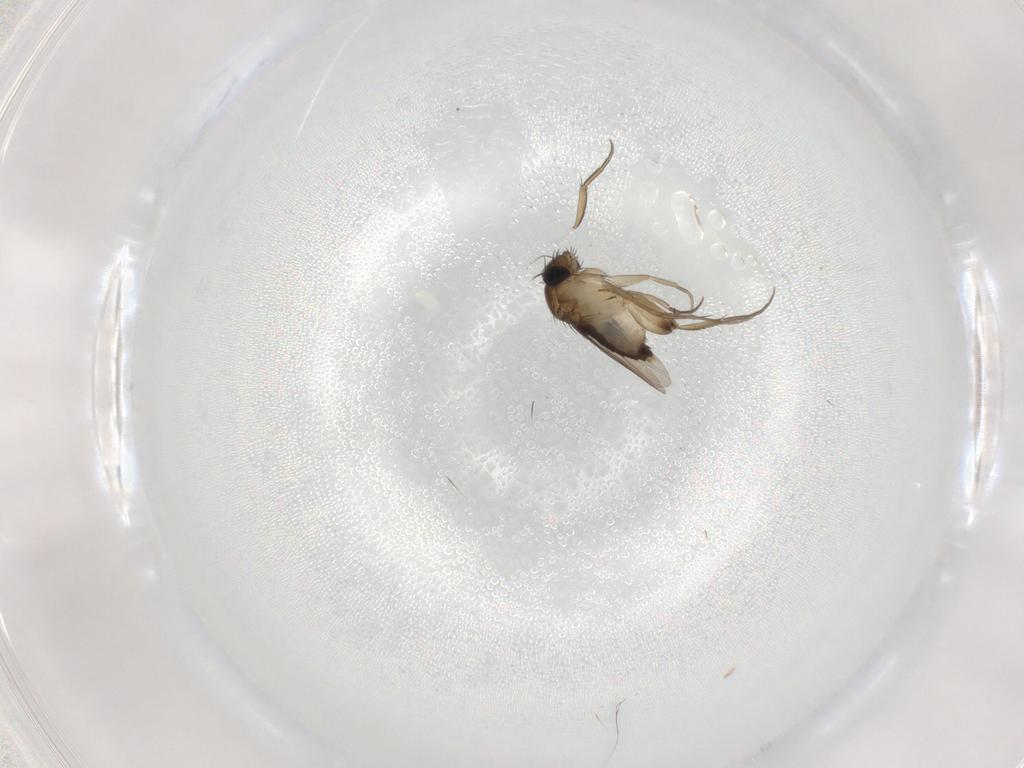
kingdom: Animalia
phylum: Arthropoda
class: Insecta
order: Diptera
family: Phoridae
